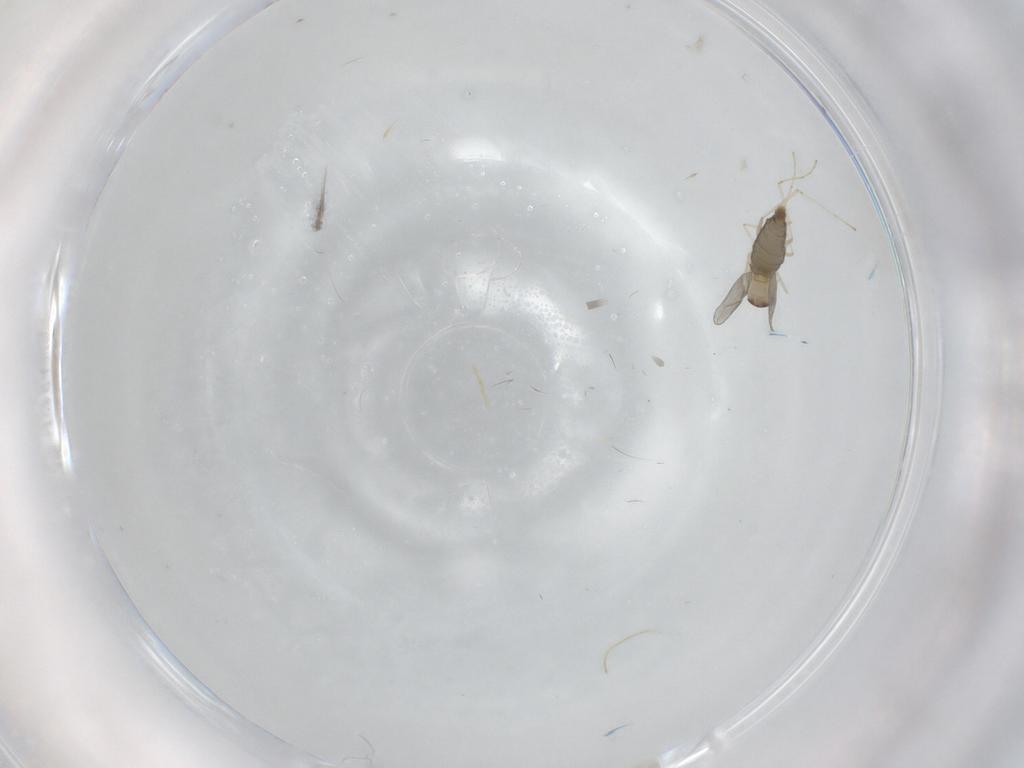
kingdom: Animalia
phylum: Arthropoda
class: Insecta
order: Diptera
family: Cecidomyiidae
